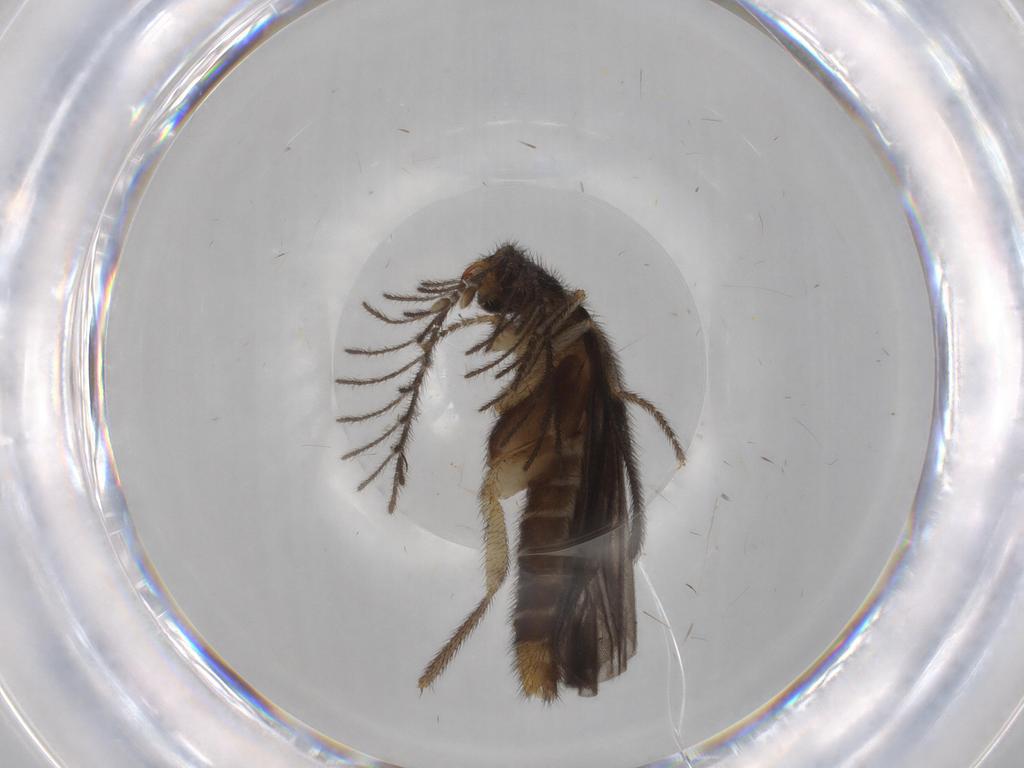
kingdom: Animalia
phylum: Arthropoda
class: Insecta
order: Coleoptera
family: Scarabaeidae
